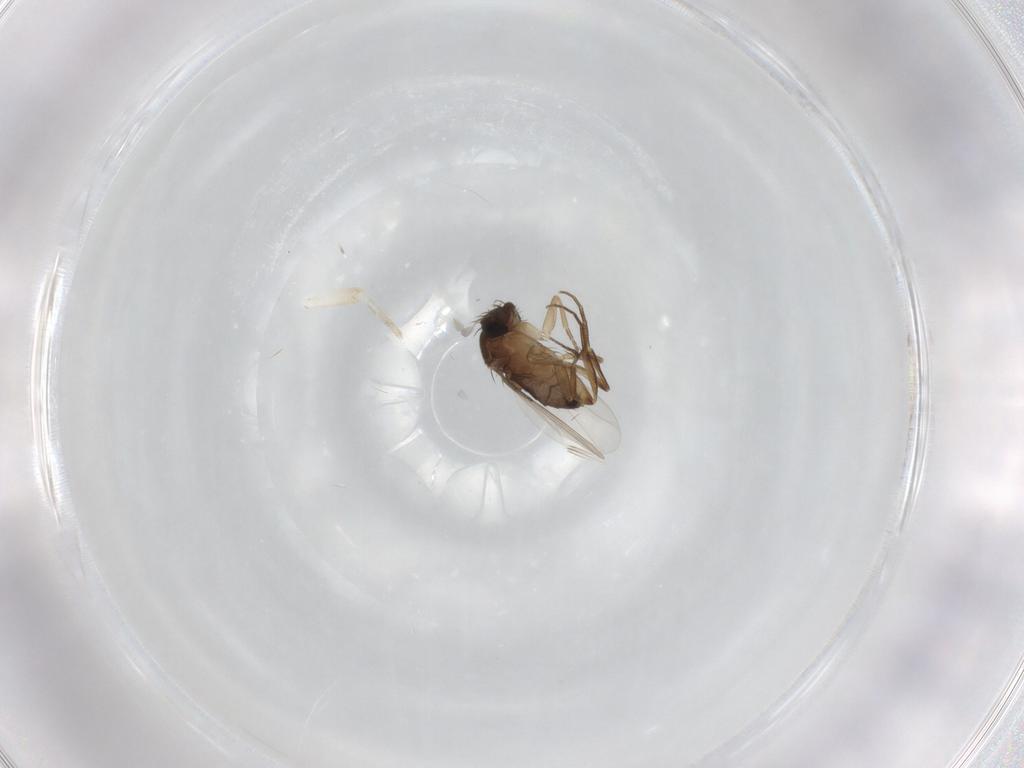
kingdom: Animalia
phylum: Arthropoda
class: Insecta
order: Diptera
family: Phoridae
